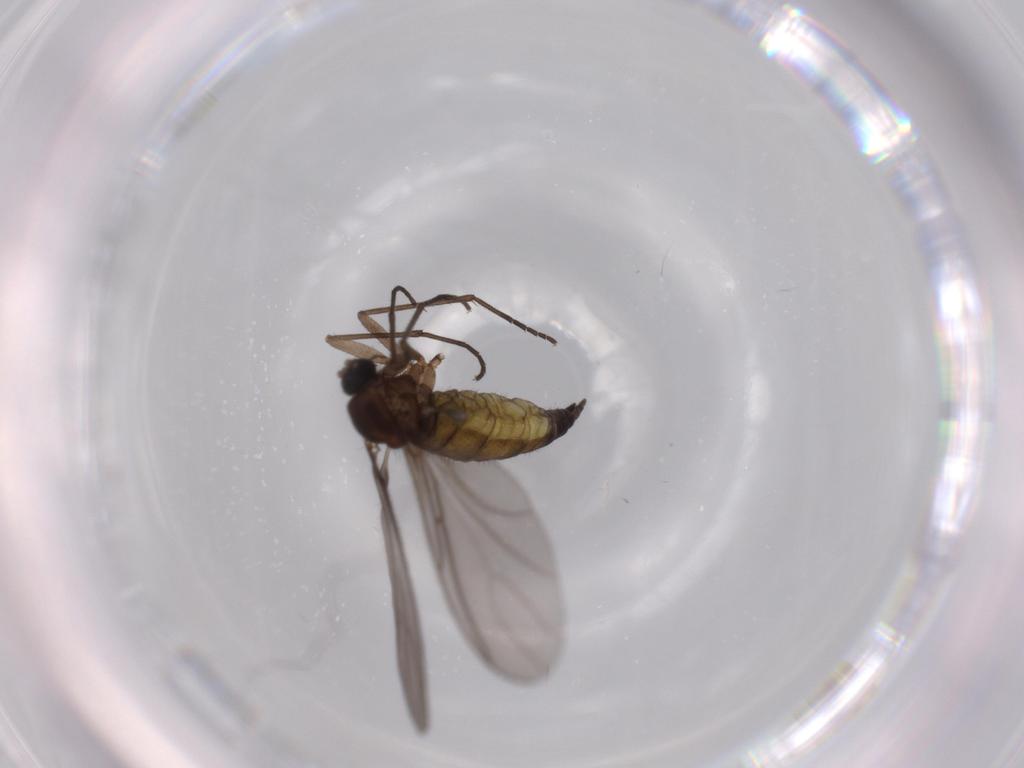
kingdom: Animalia
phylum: Arthropoda
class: Insecta
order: Diptera
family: Sciaridae
